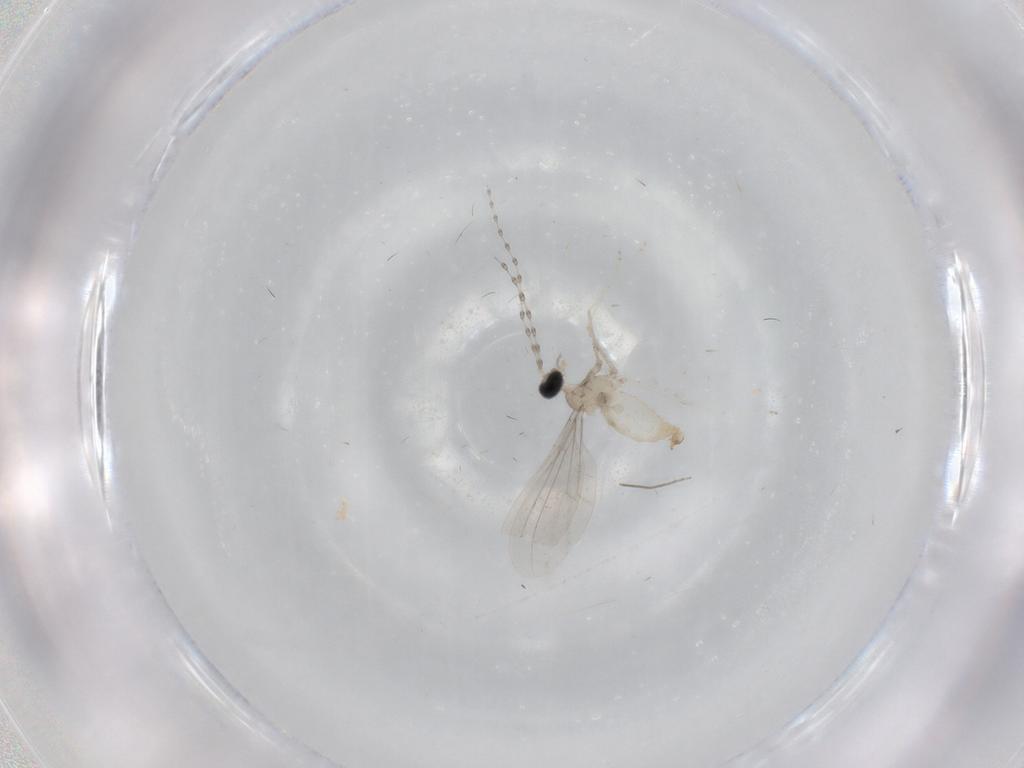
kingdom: Animalia
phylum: Arthropoda
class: Insecta
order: Diptera
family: Cecidomyiidae
